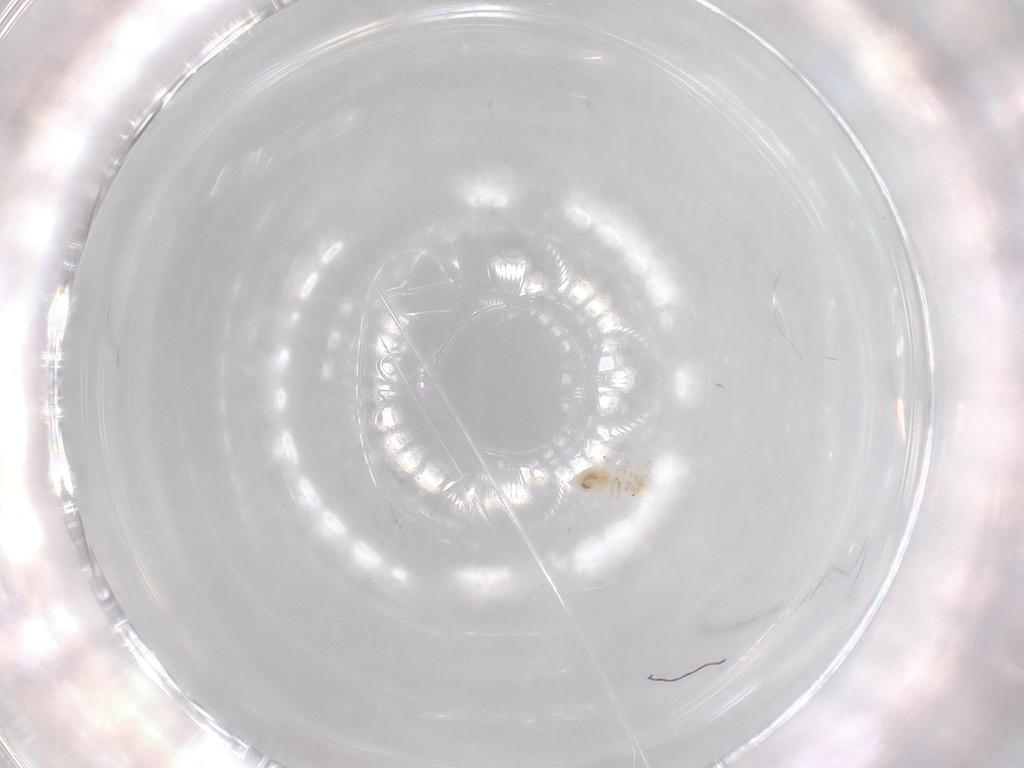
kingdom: Animalia
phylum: Arthropoda
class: Insecta
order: Psocodea
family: Caeciliusidae
